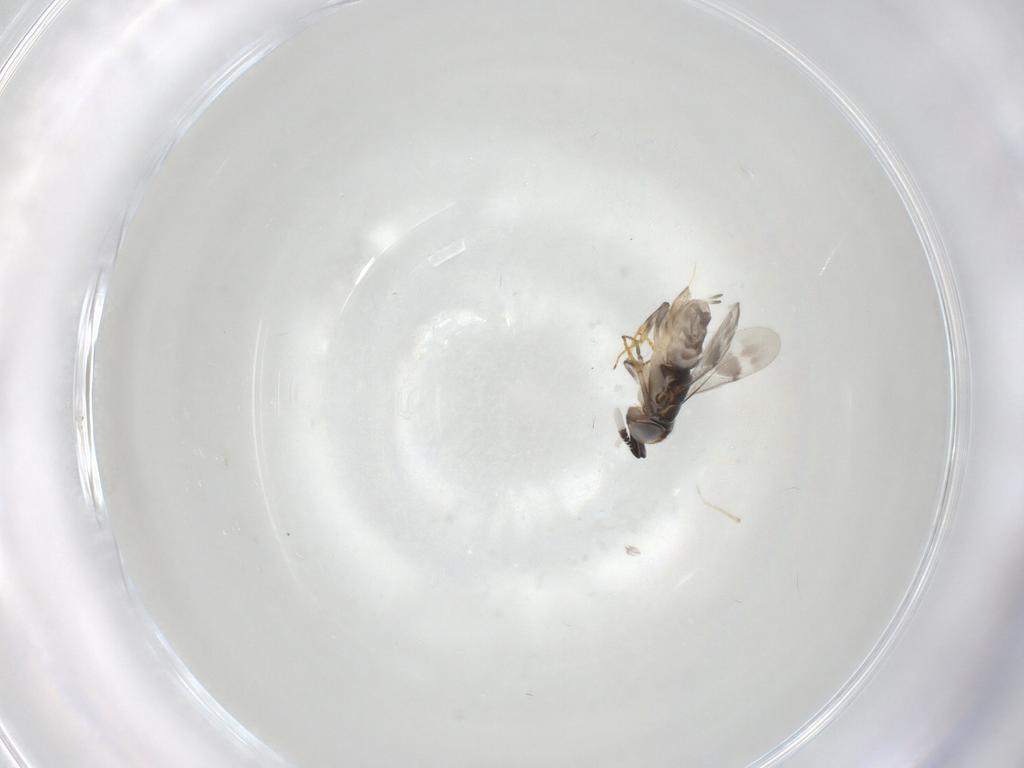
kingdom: Animalia
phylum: Arthropoda
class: Insecta
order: Hymenoptera
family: Encyrtidae
